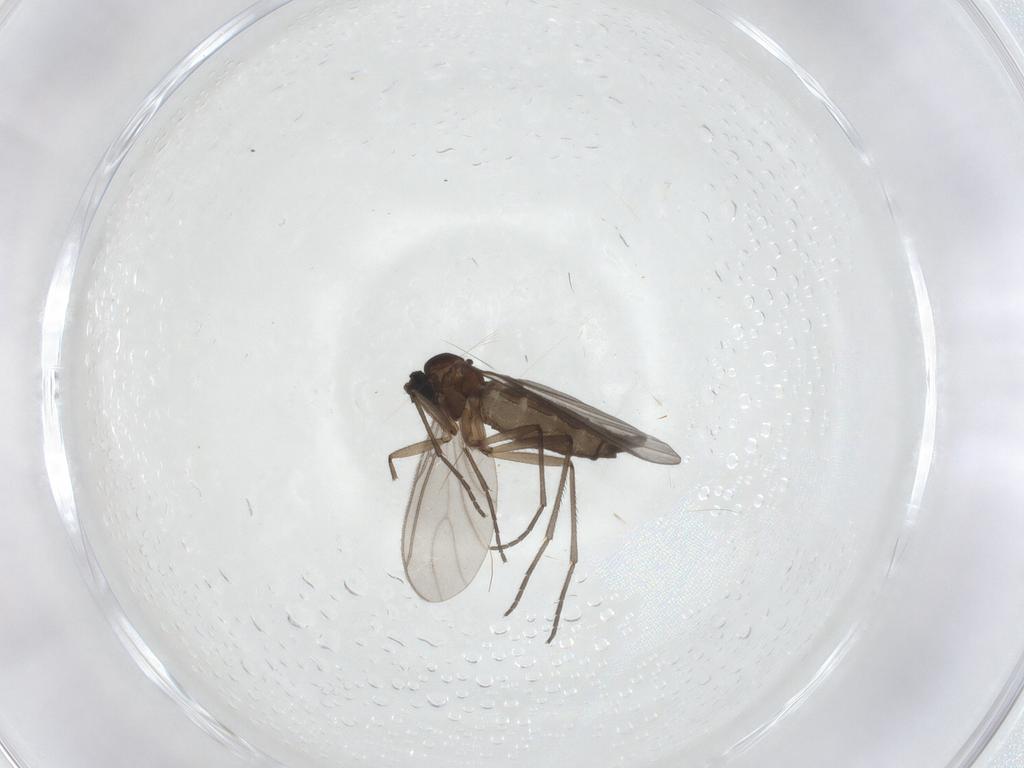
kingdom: Animalia
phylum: Arthropoda
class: Insecta
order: Diptera
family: Sciaridae
